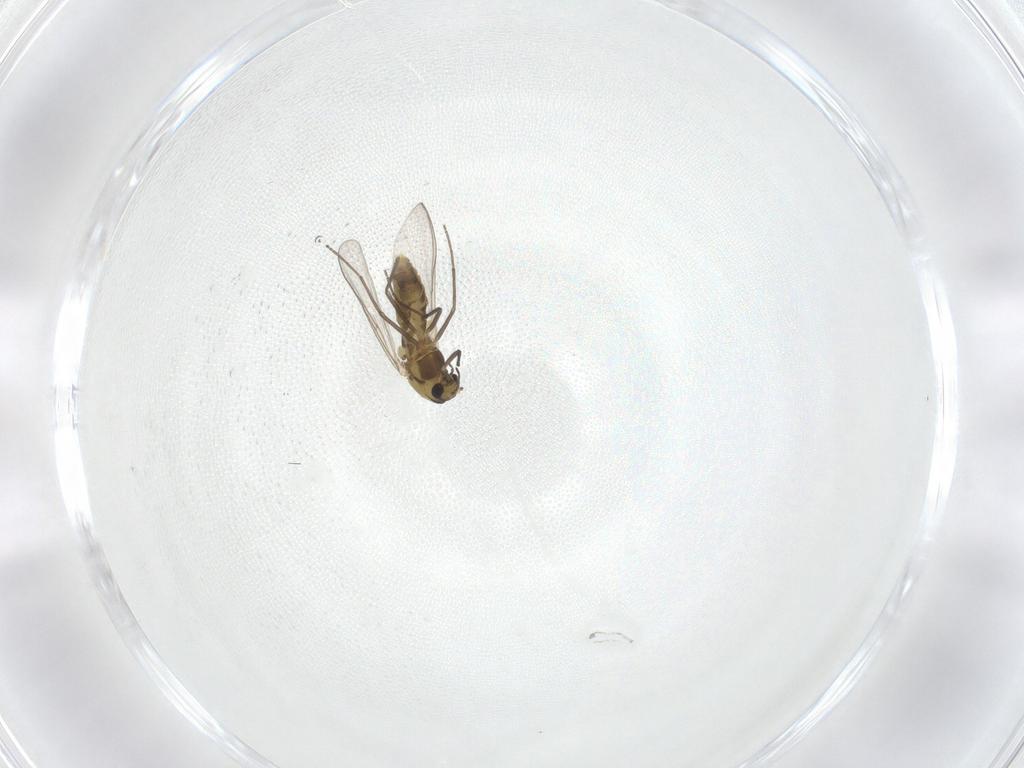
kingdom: Animalia
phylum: Arthropoda
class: Insecta
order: Diptera
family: Chironomidae
